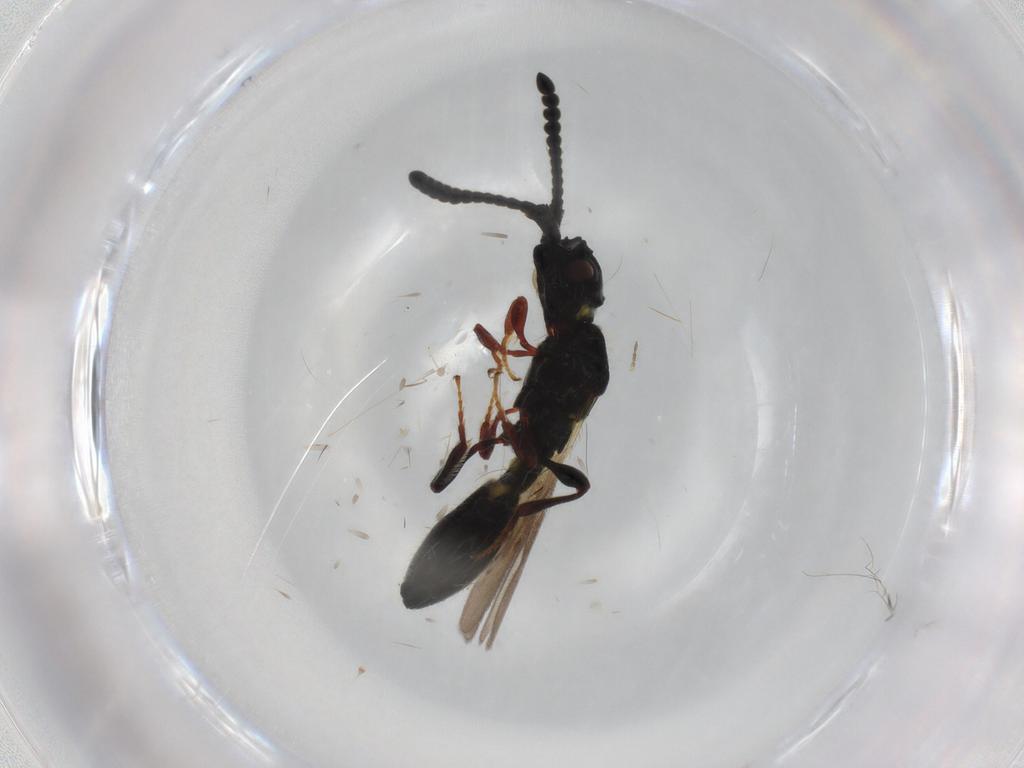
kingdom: Animalia
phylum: Arthropoda
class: Insecta
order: Hymenoptera
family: Diapriidae
